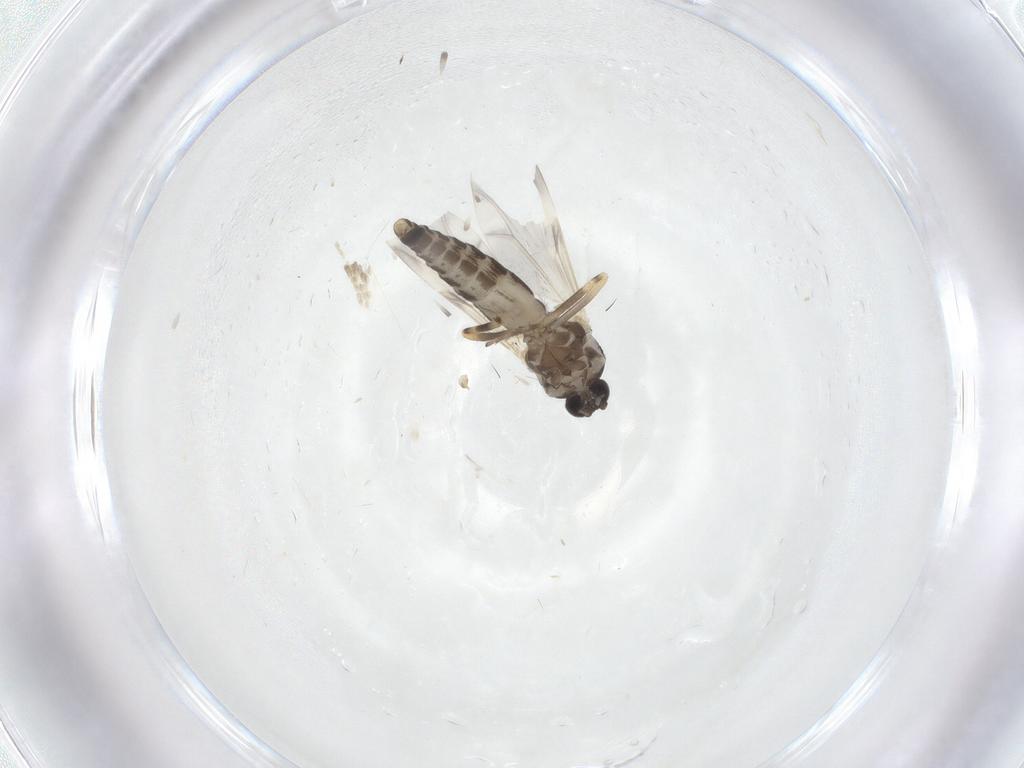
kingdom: Animalia
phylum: Arthropoda
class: Insecta
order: Diptera
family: Ceratopogonidae
